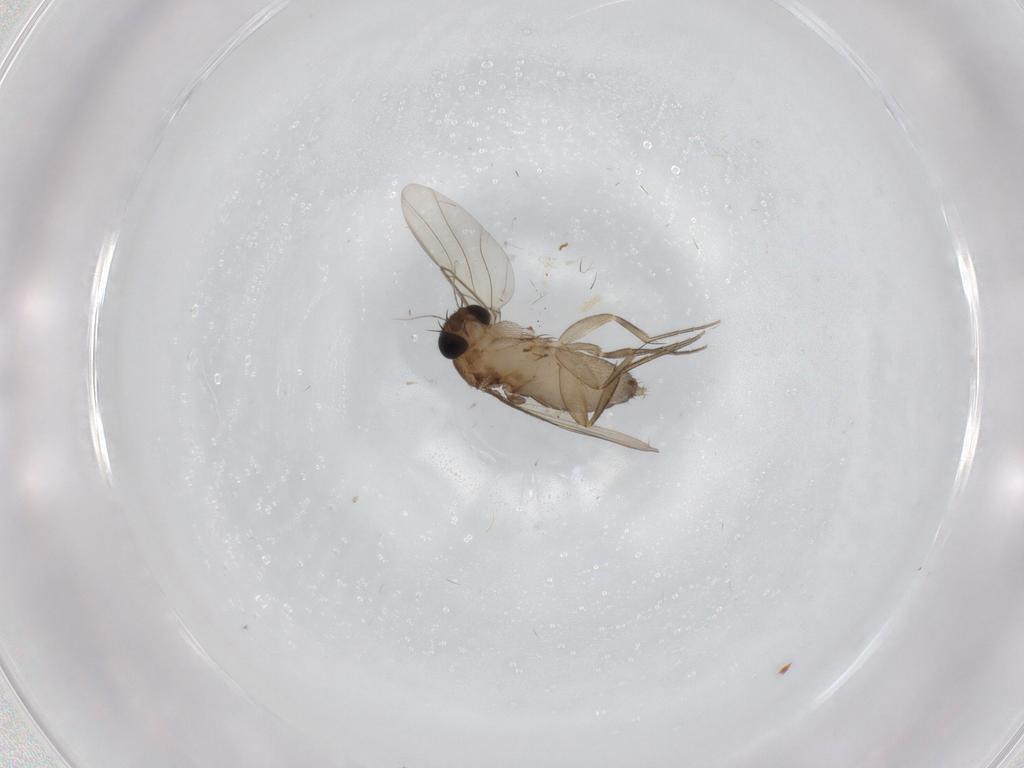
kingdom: Animalia
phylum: Arthropoda
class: Insecta
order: Diptera
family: Phoridae
